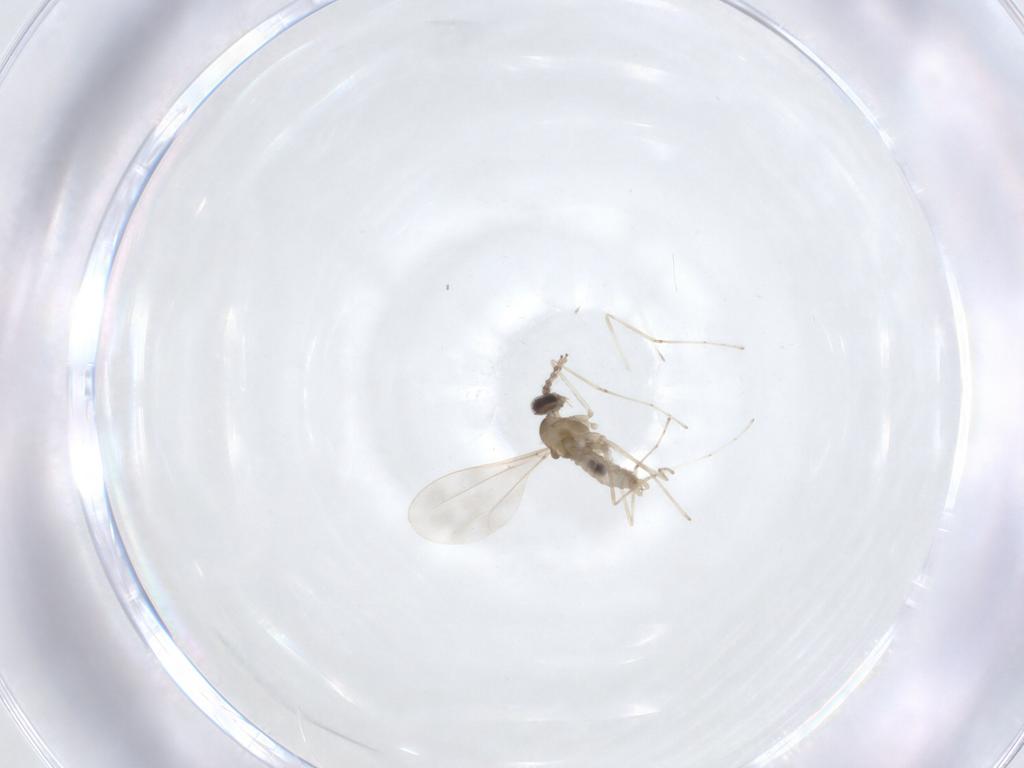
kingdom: Animalia
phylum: Arthropoda
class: Insecta
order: Diptera
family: Cecidomyiidae
